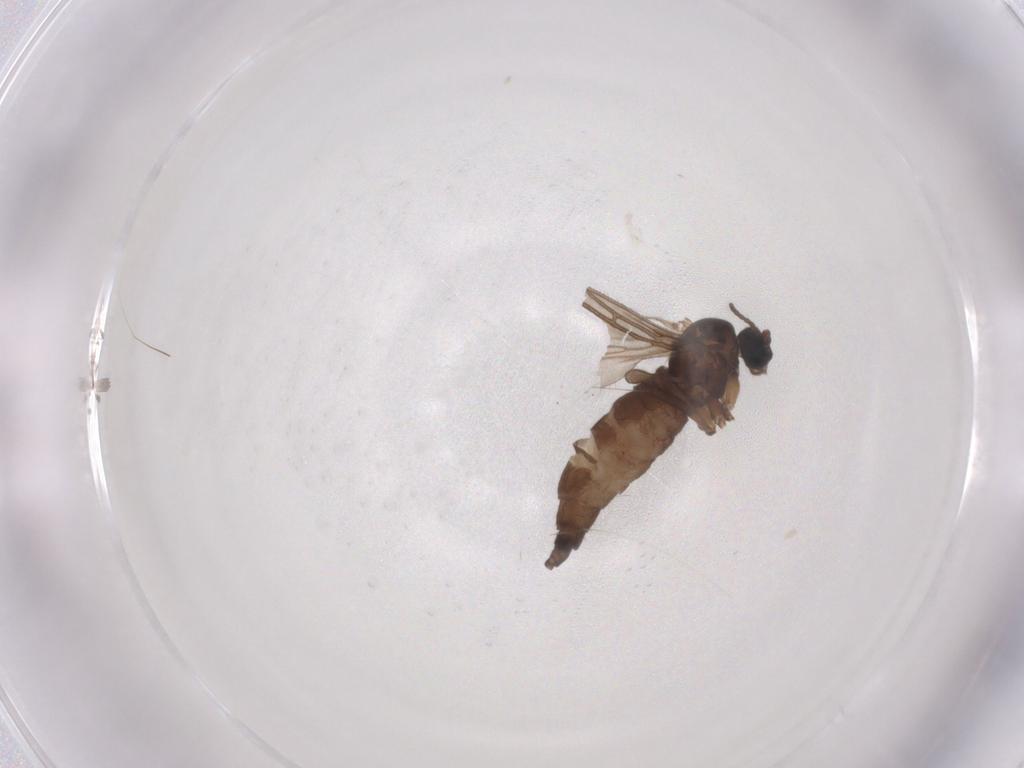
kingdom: Animalia
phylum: Arthropoda
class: Insecta
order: Diptera
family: Sciaridae
